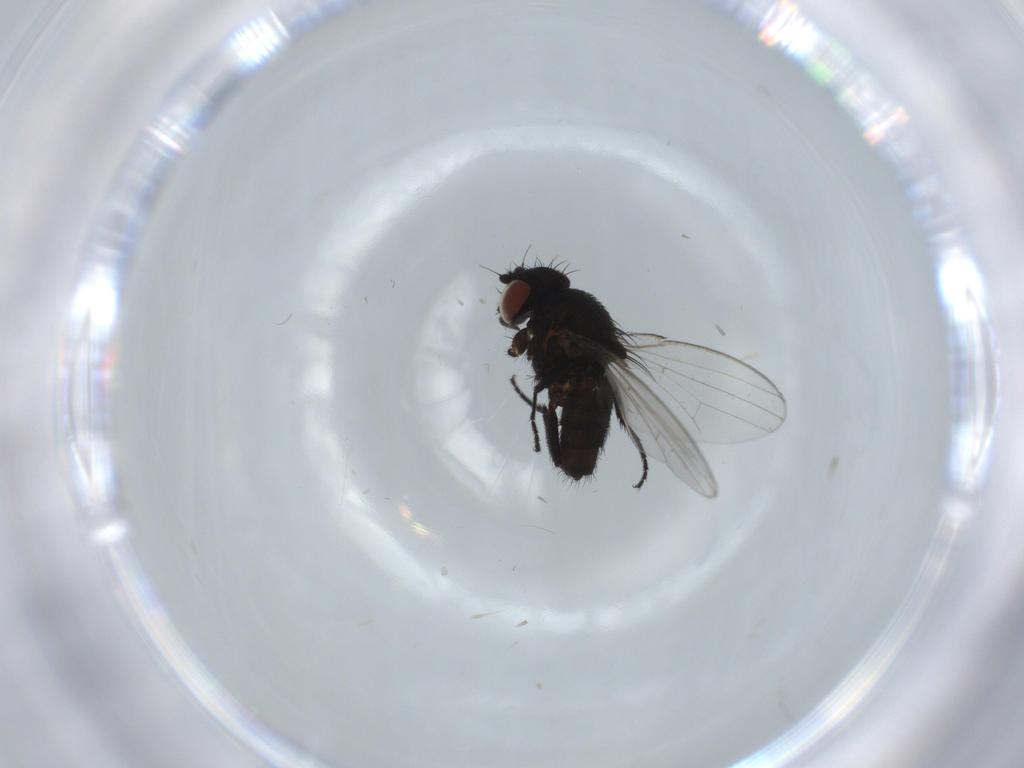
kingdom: Animalia
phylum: Arthropoda
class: Insecta
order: Diptera
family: Milichiidae
